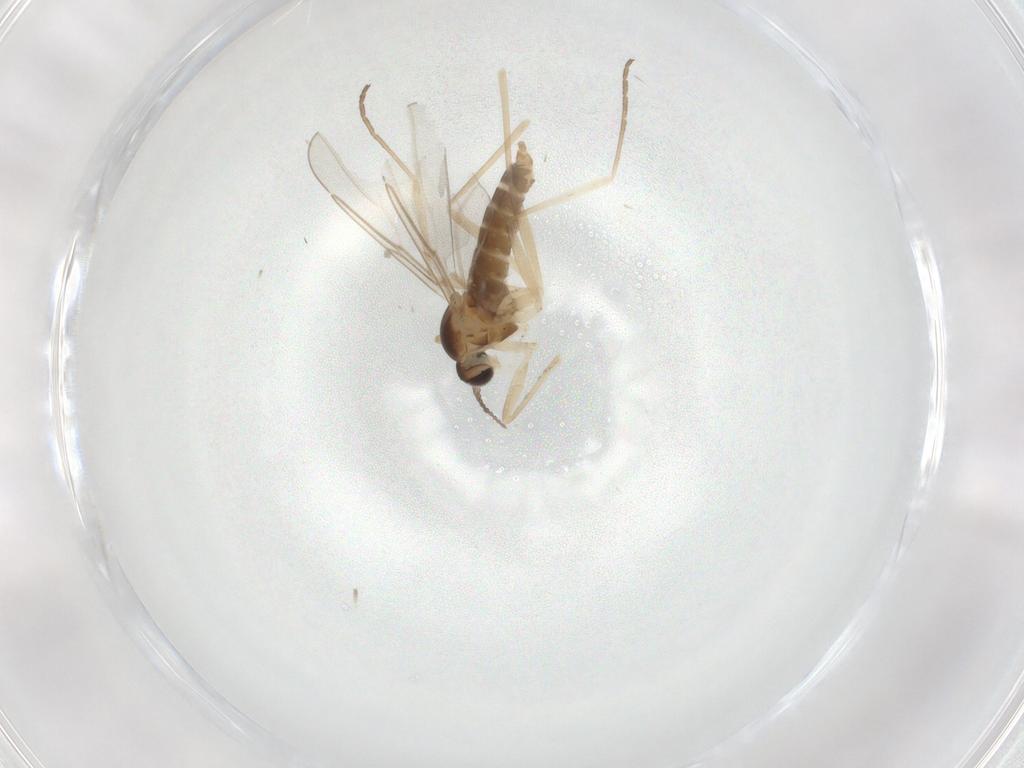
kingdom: Animalia
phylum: Arthropoda
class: Insecta
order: Diptera
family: Cecidomyiidae
